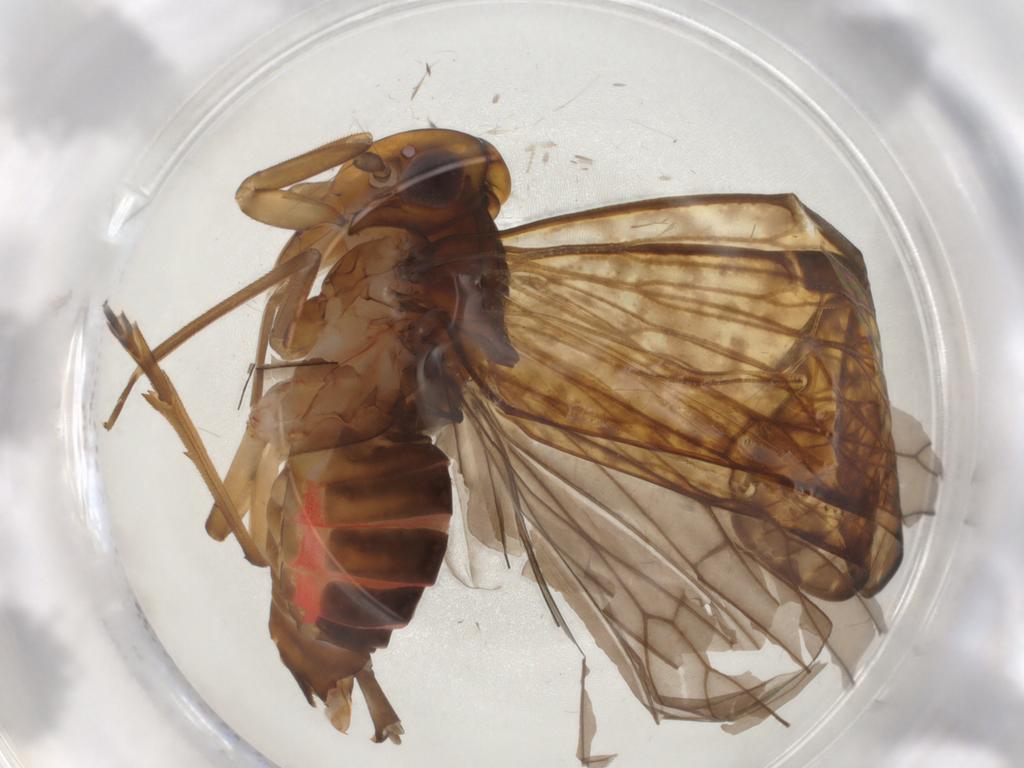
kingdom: Animalia
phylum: Arthropoda
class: Insecta
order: Hemiptera
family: Cixiidae
